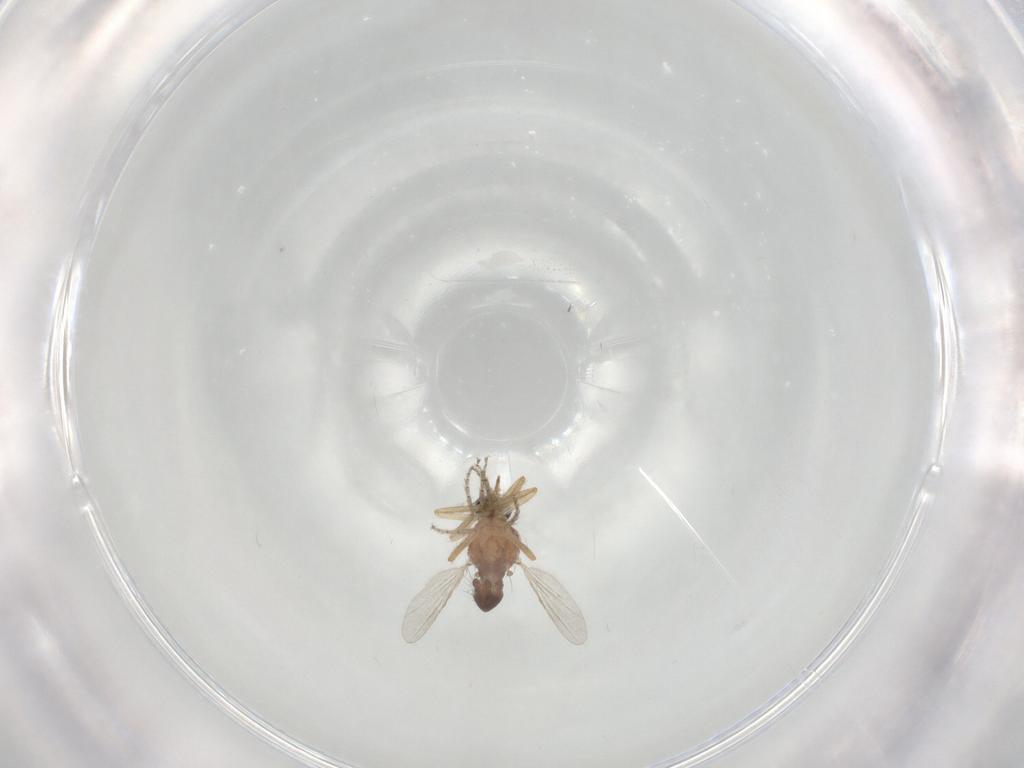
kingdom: Animalia
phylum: Arthropoda
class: Insecta
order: Diptera
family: Ceratopogonidae
